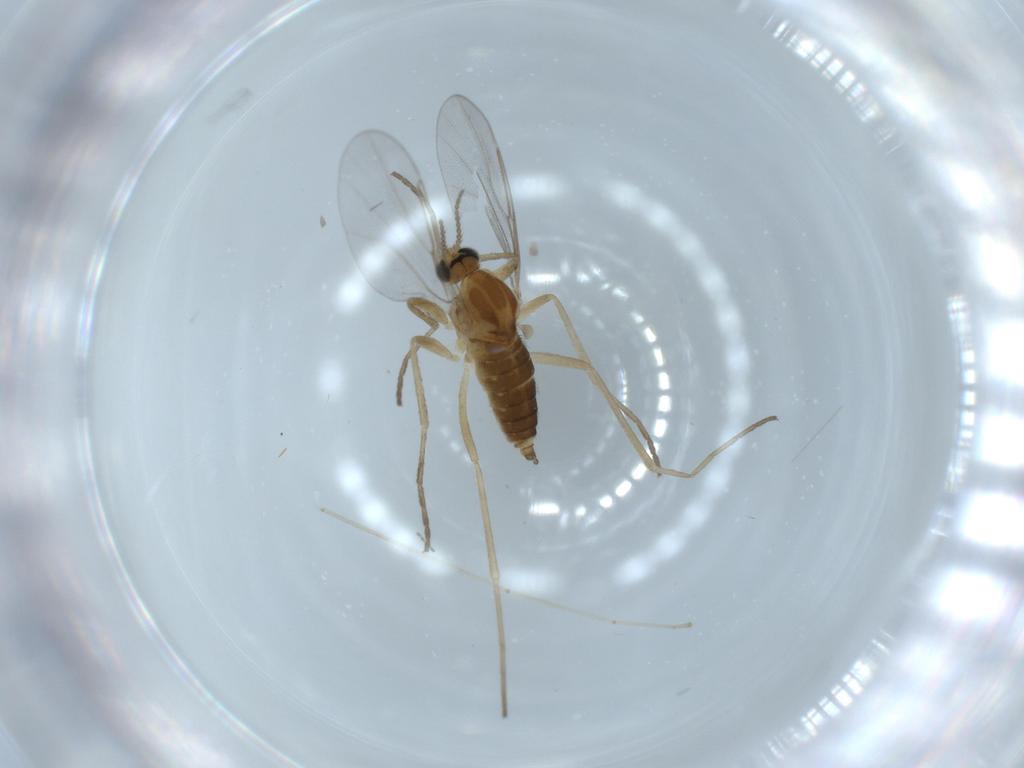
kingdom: Animalia
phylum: Arthropoda
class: Insecta
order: Diptera
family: Cecidomyiidae
